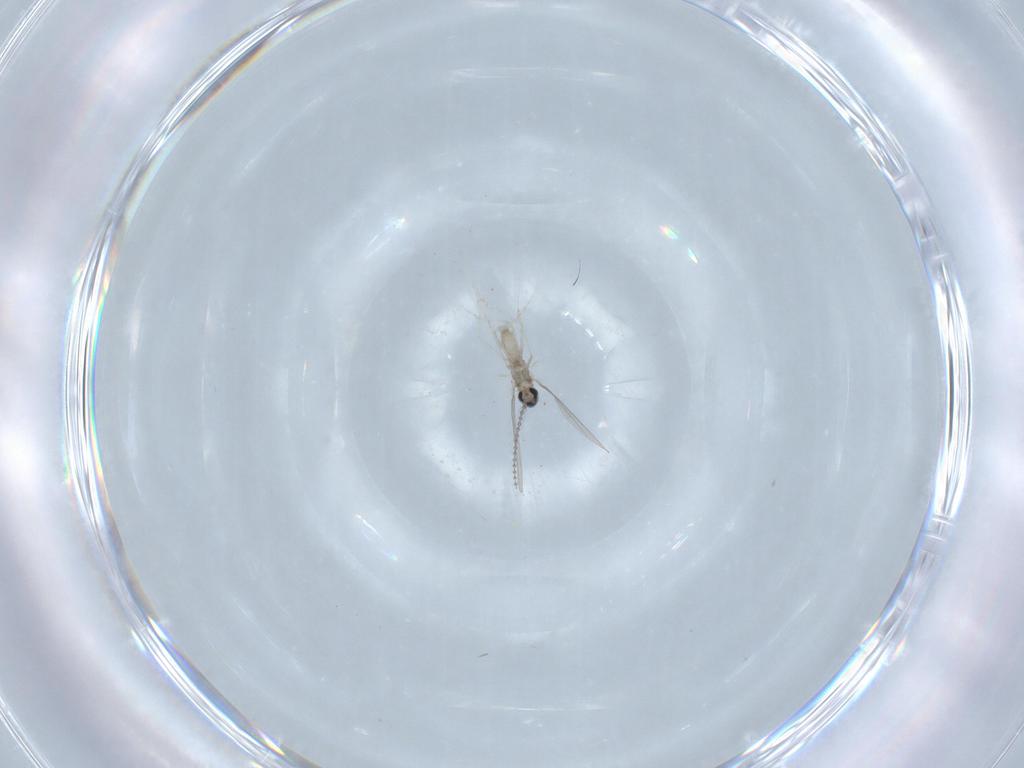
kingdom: Animalia
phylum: Arthropoda
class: Insecta
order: Diptera
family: Cecidomyiidae
